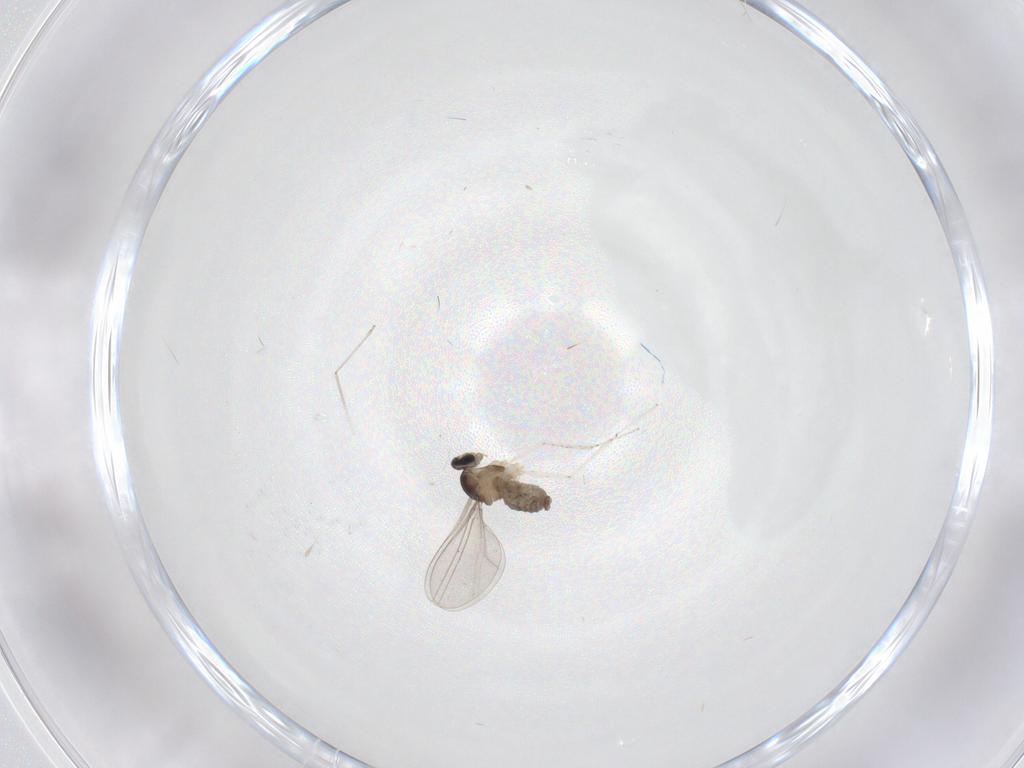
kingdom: Animalia
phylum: Arthropoda
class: Insecta
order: Diptera
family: Cecidomyiidae
